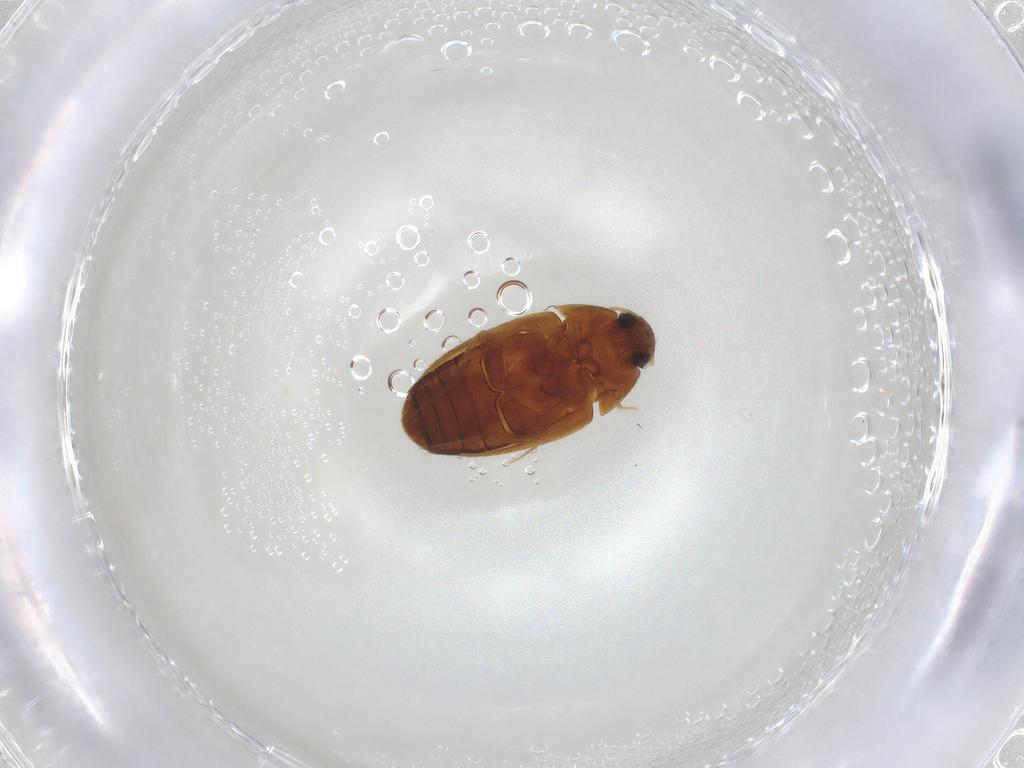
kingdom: Animalia
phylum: Arthropoda
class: Insecta
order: Coleoptera
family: Mycetophagidae
